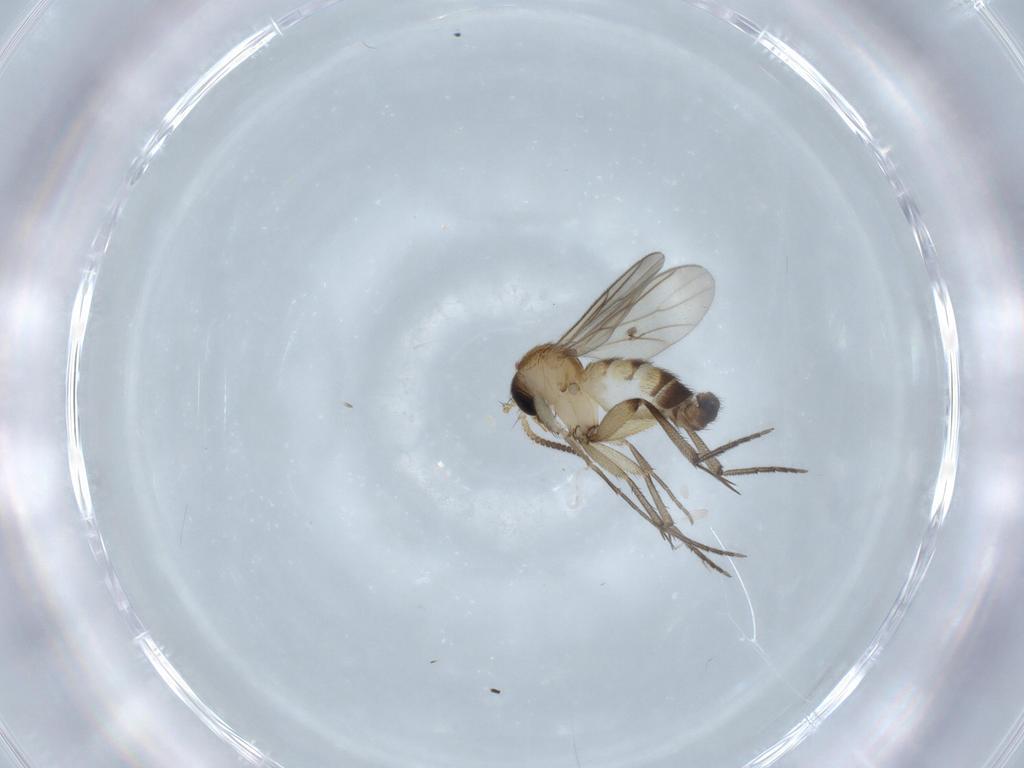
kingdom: Animalia
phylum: Arthropoda
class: Insecta
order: Diptera
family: Mycetophilidae
